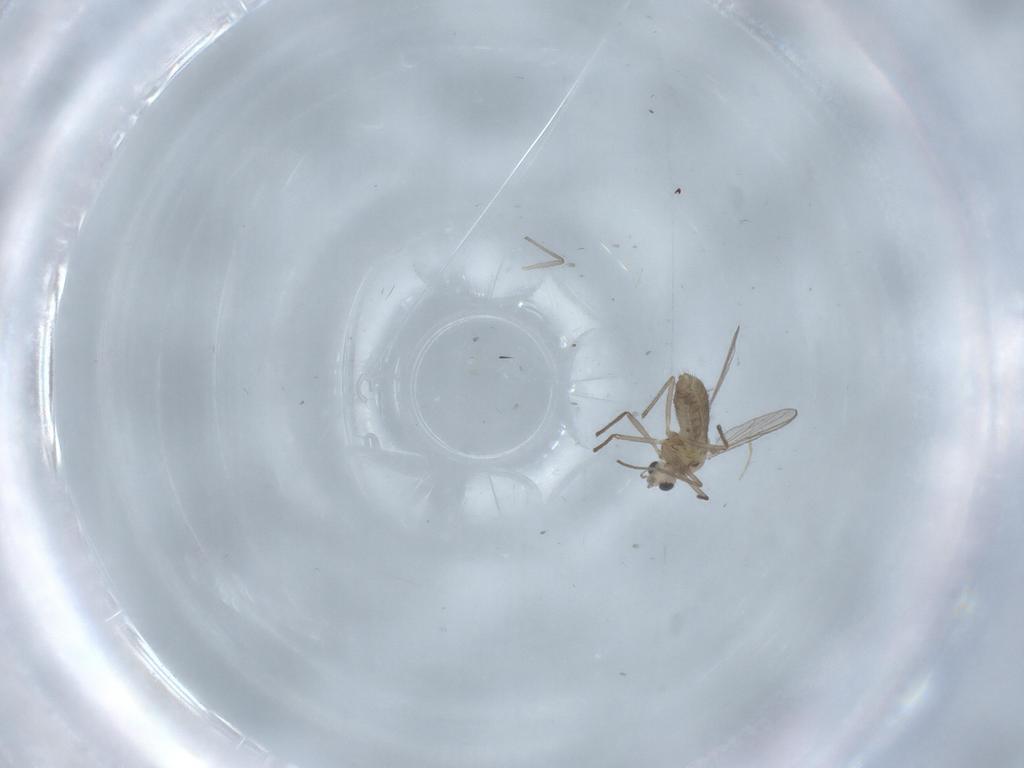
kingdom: Animalia
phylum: Arthropoda
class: Insecta
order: Diptera
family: Chironomidae
